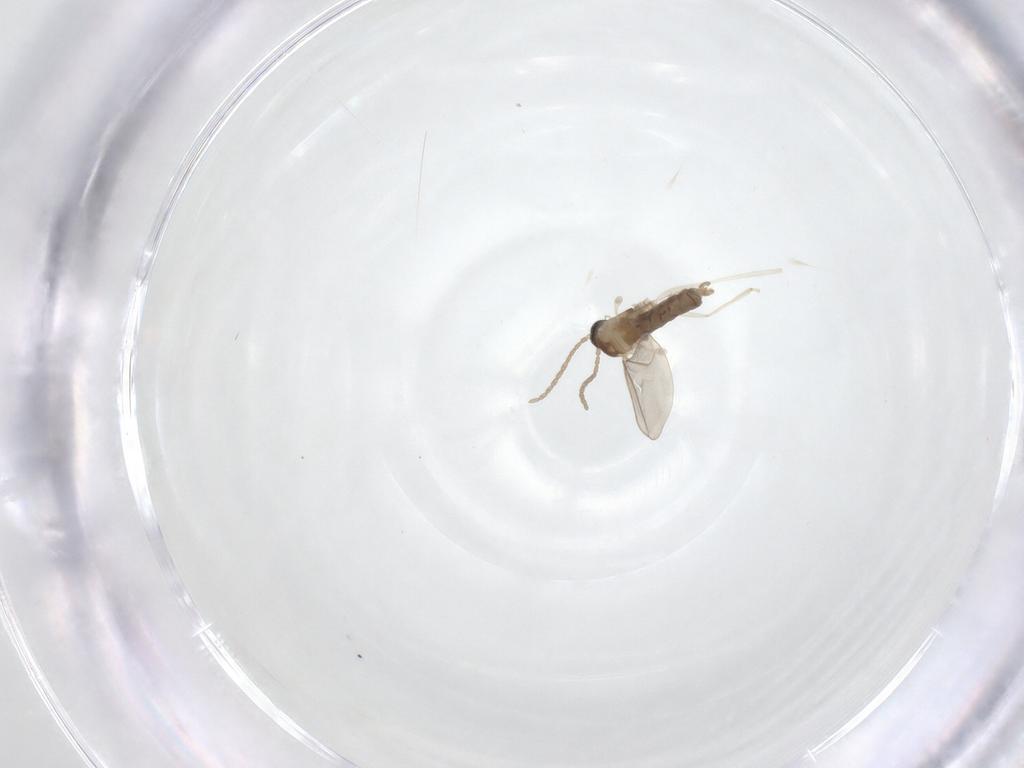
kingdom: Animalia
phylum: Arthropoda
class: Insecta
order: Diptera
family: Cecidomyiidae
